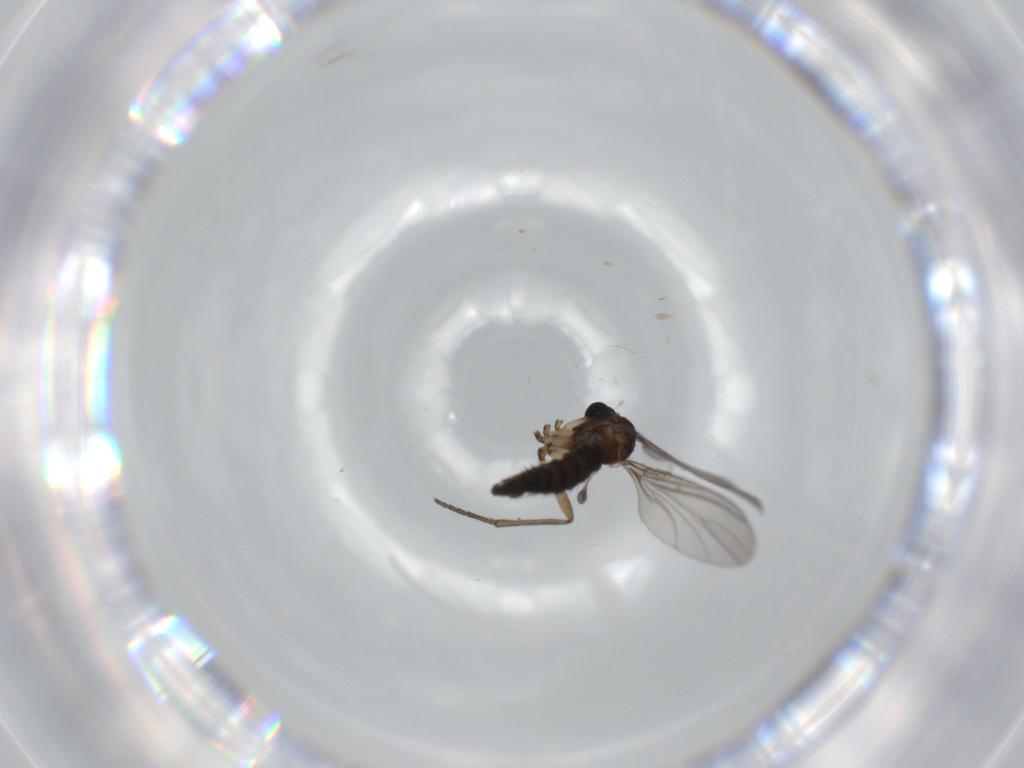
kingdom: Animalia
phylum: Arthropoda
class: Insecta
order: Diptera
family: Sciaridae
